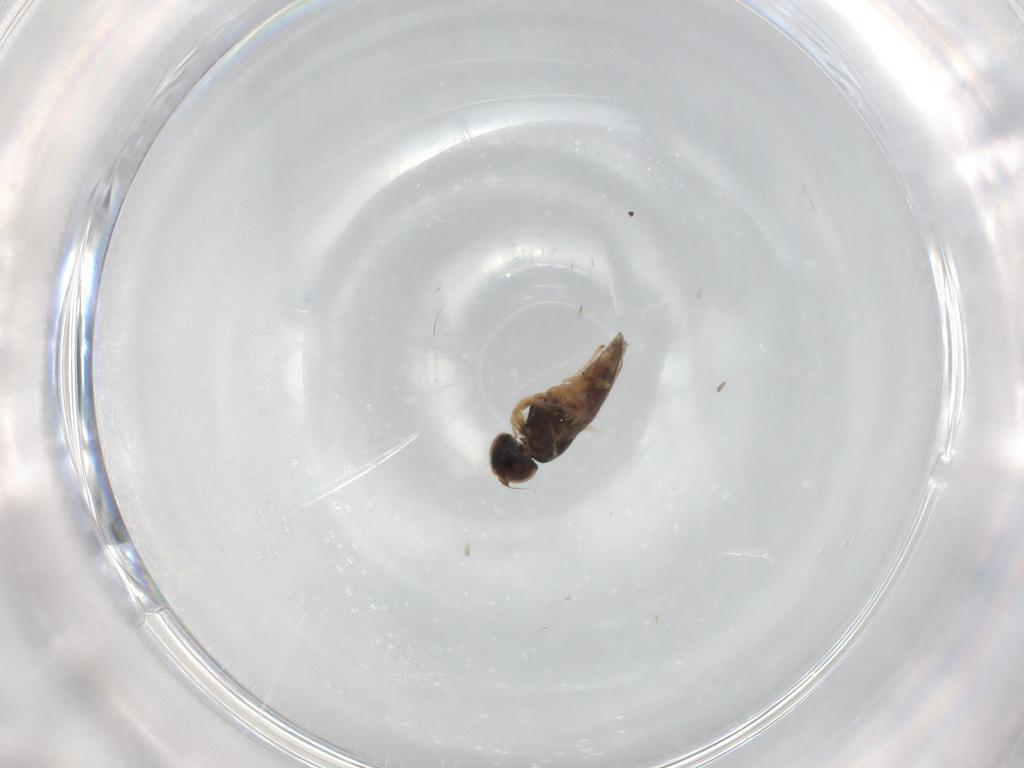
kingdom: Animalia
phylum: Arthropoda
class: Insecta
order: Diptera
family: Chloropidae
